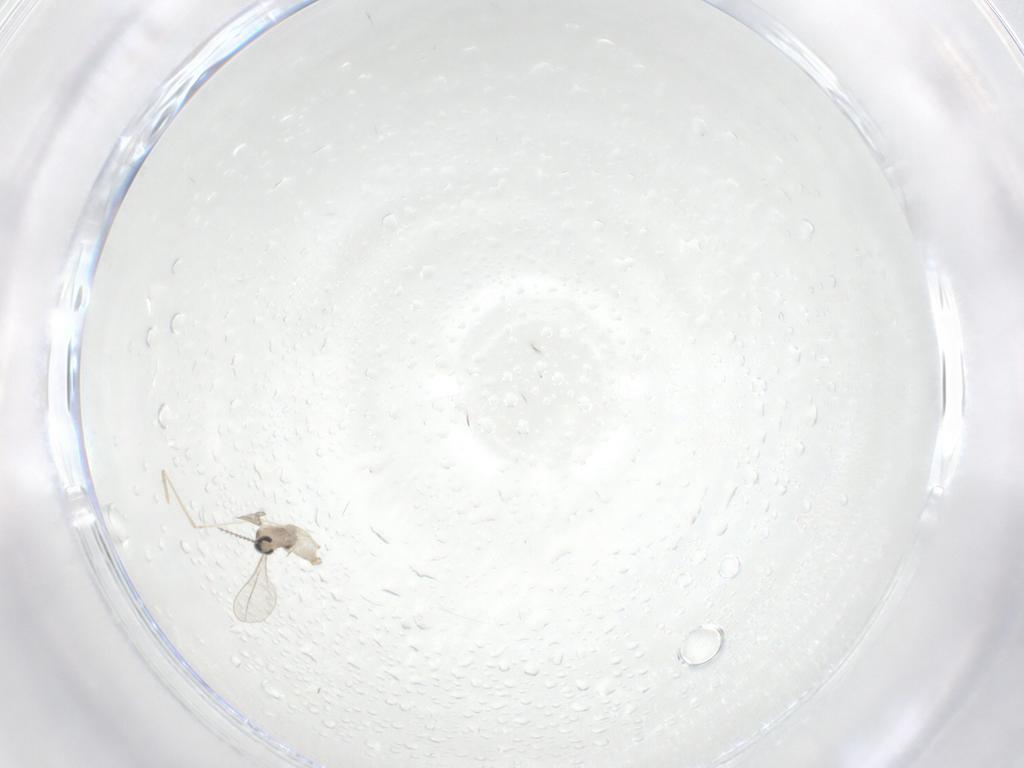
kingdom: Animalia
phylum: Arthropoda
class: Insecta
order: Diptera
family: Cecidomyiidae
